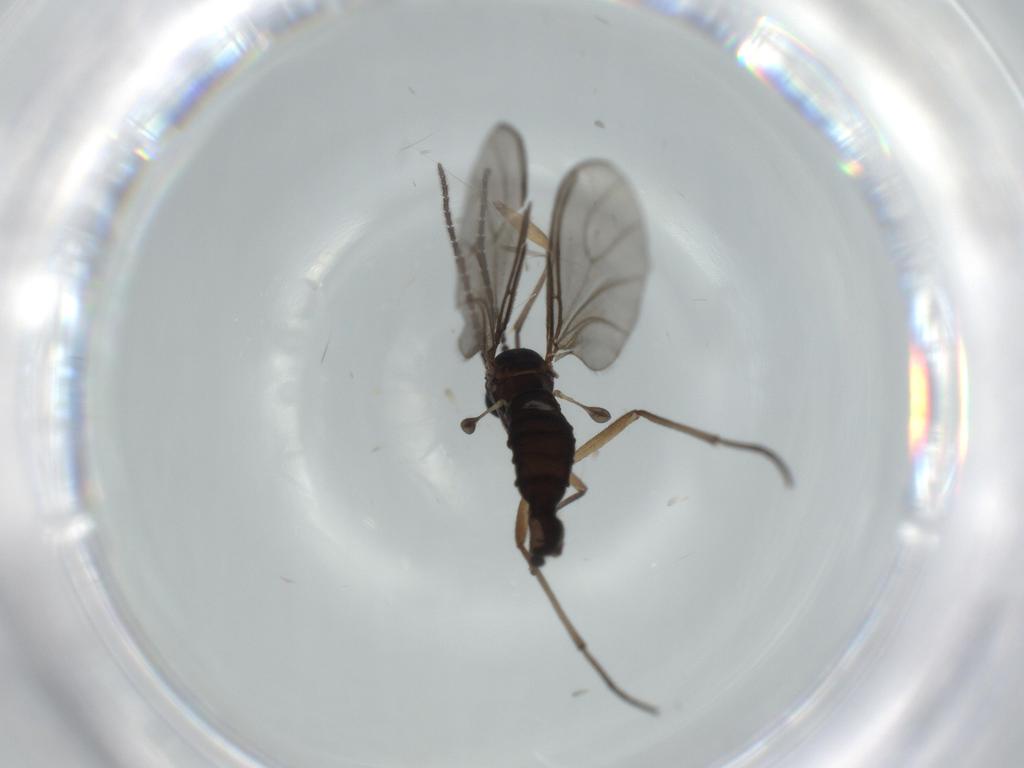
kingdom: Animalia
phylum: Arthropoda
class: Insecta
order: Diptera
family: Sciaridae
